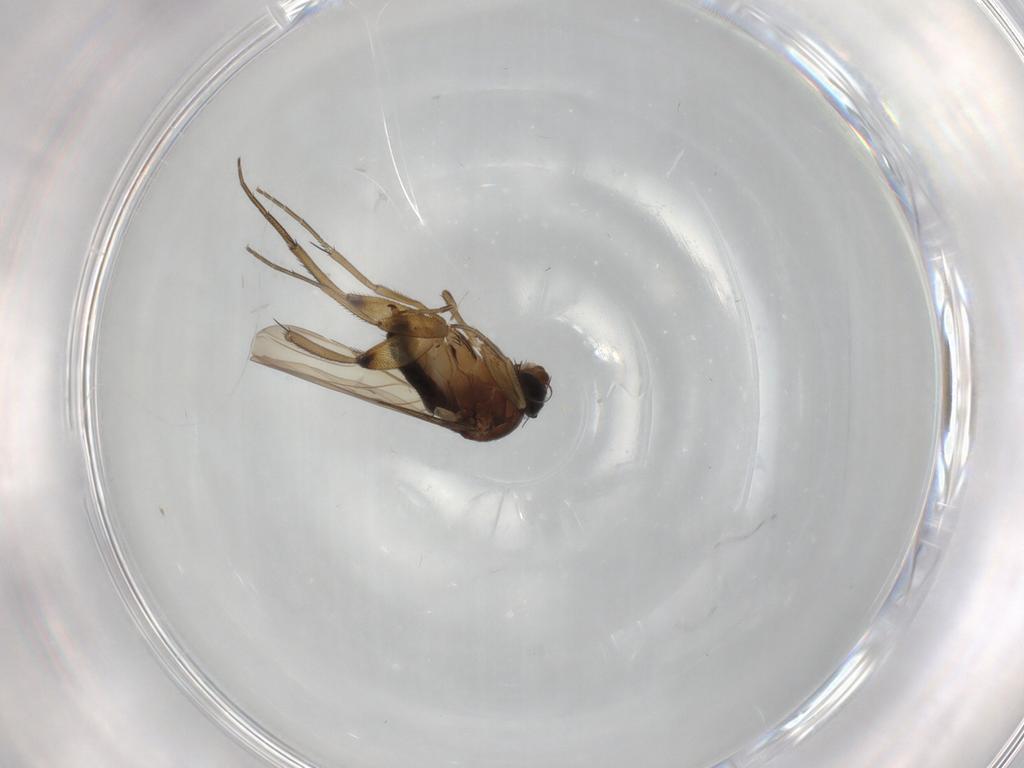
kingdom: Animalia
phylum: Arthropoda
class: Insecta
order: Diptera
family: Phoridae
